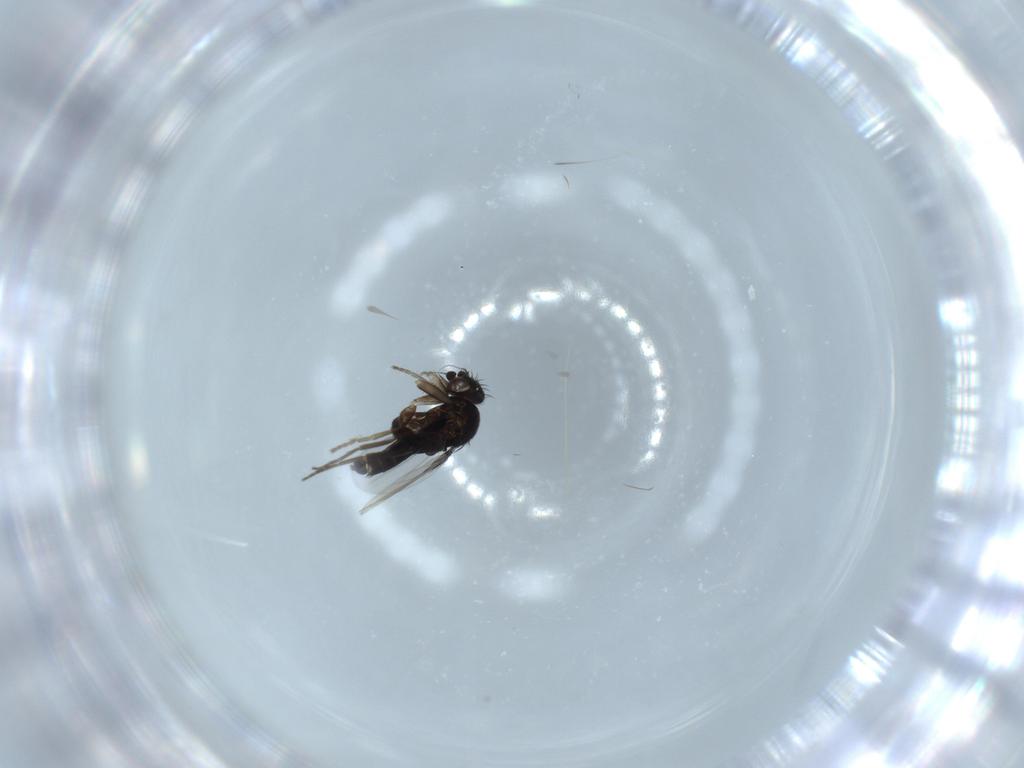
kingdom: Animalia
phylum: Arthropoda
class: Insecta
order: Diptera
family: Phoridae
